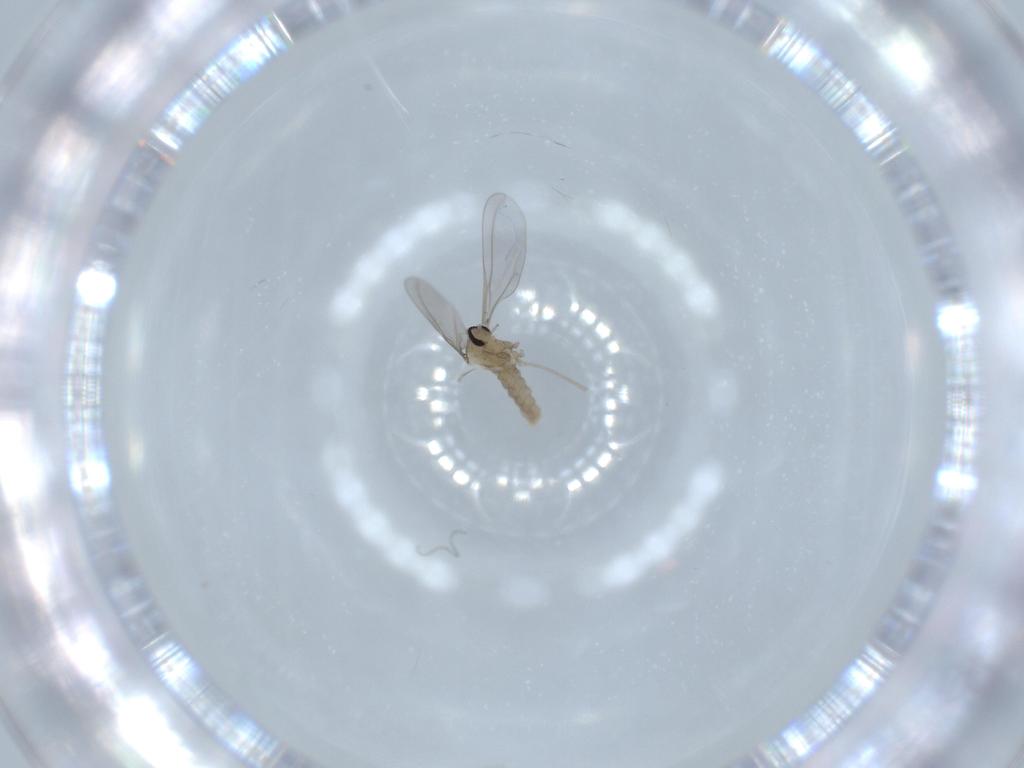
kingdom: Animalia
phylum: Arthropoda
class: Insecta
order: Diptera
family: Cecidomyiidae
